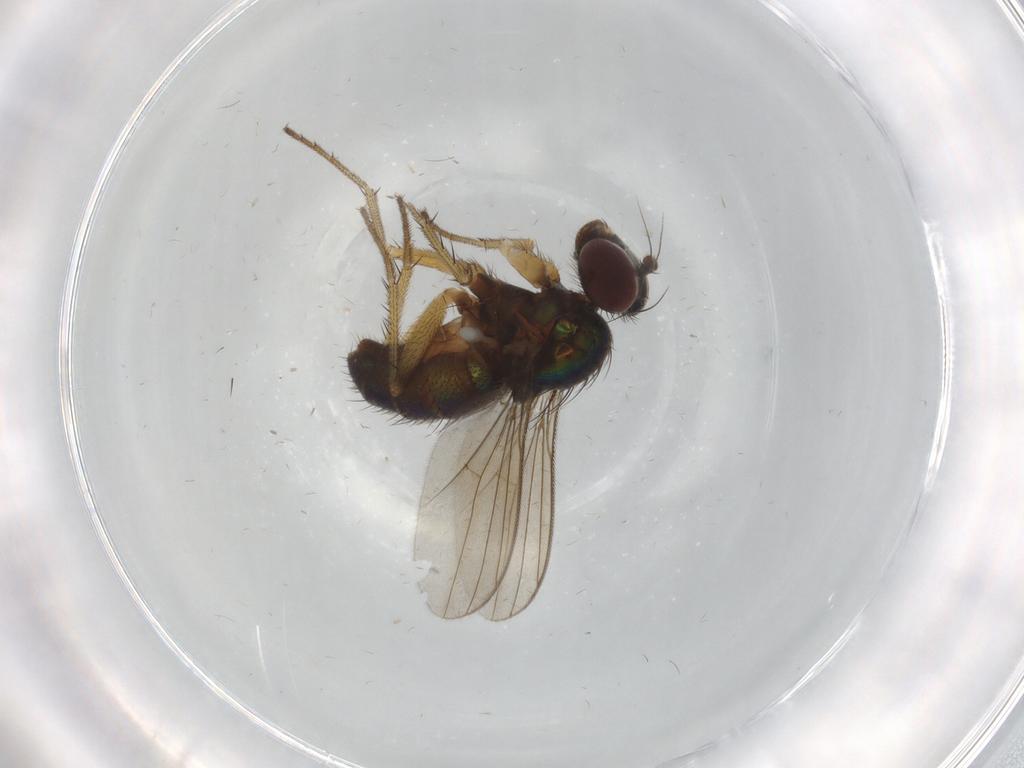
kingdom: Animalia
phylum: Arthropoda
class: Insecta
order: Diptera
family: Dolichopodidae
